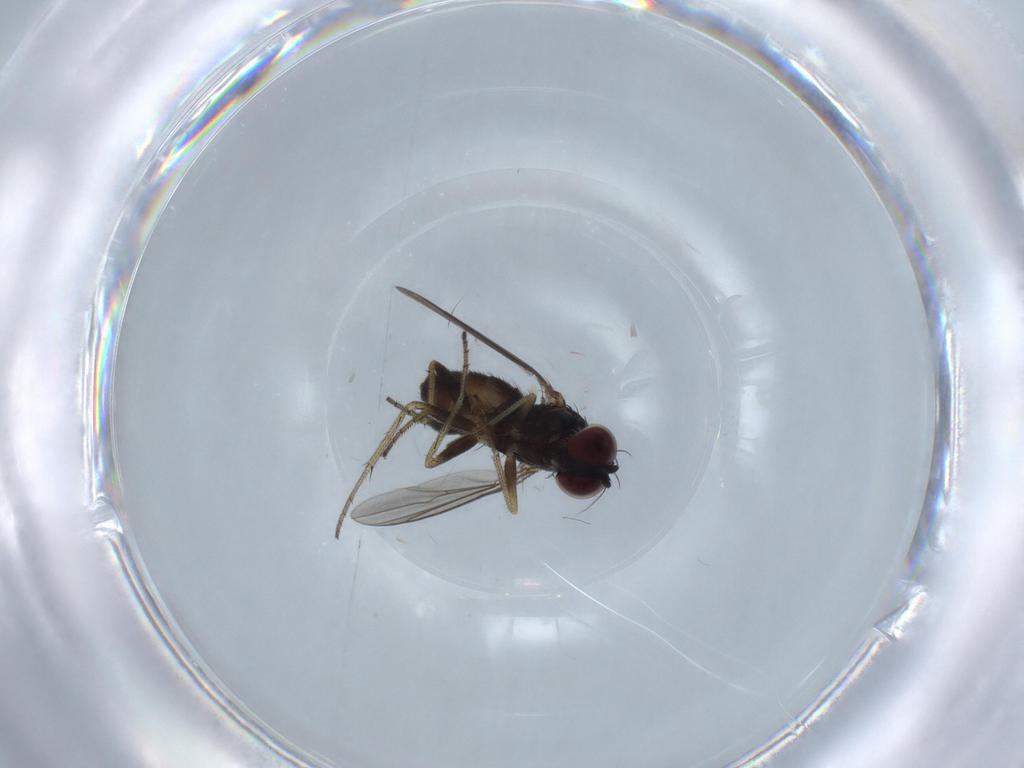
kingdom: Animalia
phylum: Arthropoda
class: Insecta
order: Diptera
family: Dolichopodidae
